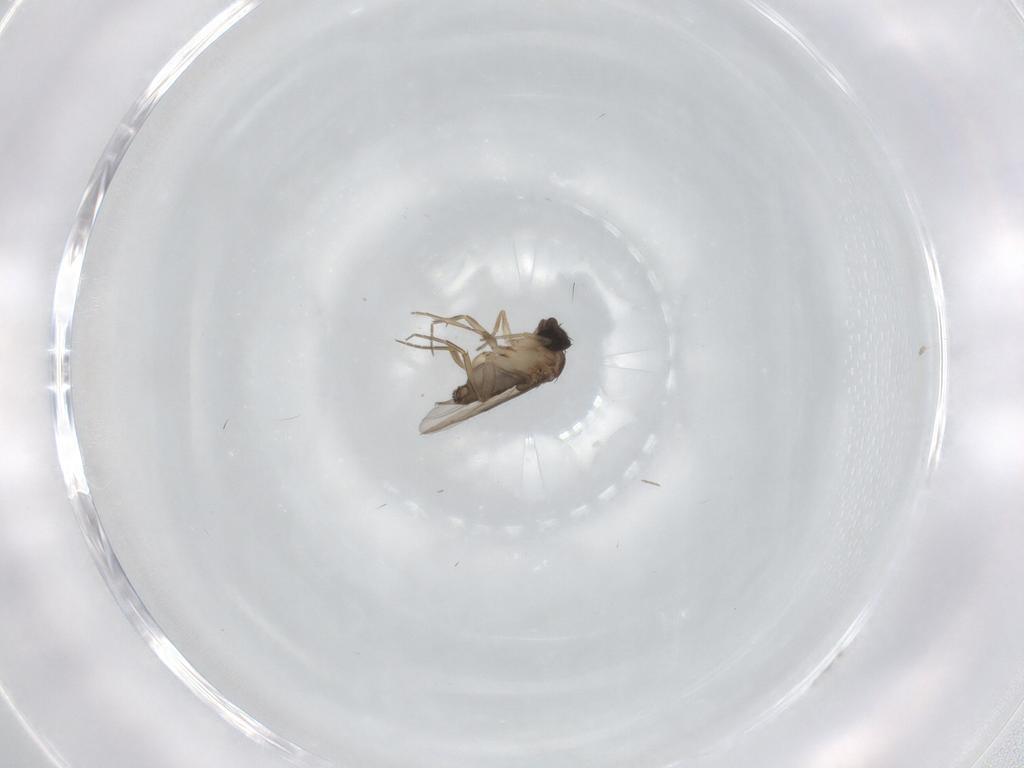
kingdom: Animalia
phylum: Arthropoda
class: Insecta
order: Diptera
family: Phoridae
